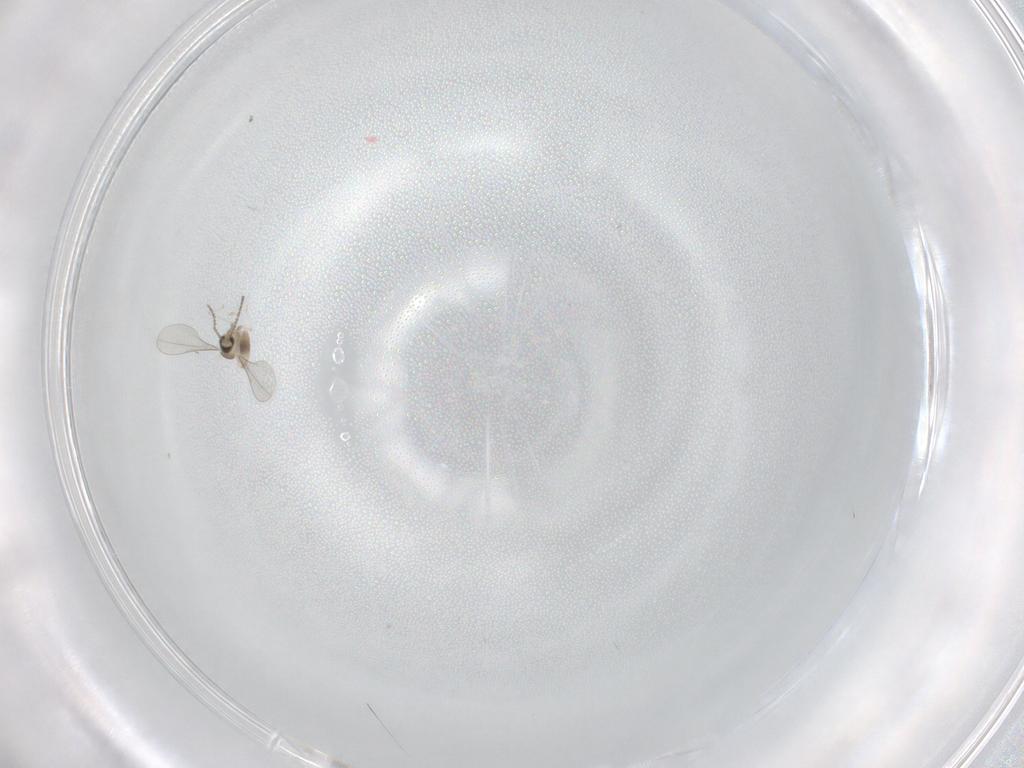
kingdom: Animalia
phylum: Arthropoda
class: Insecta
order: Diptera
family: Cecidomyiidae
